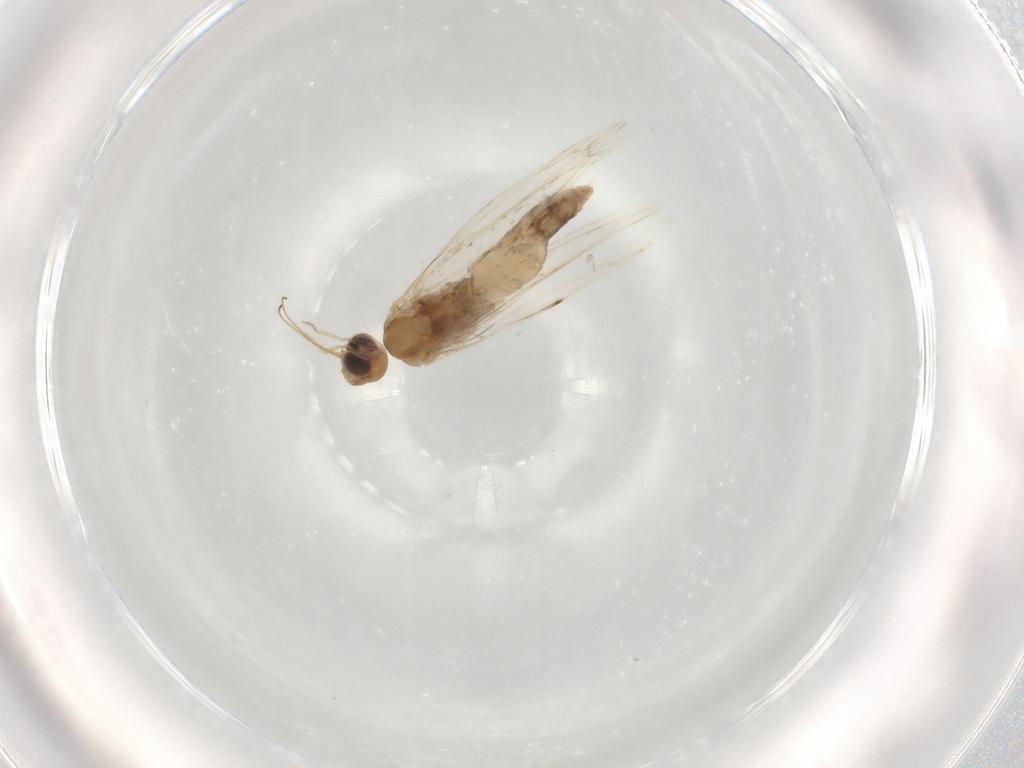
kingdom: Animalia
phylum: Arthropoda
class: Insecta
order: Lepidoptera
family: Gracillariidae
